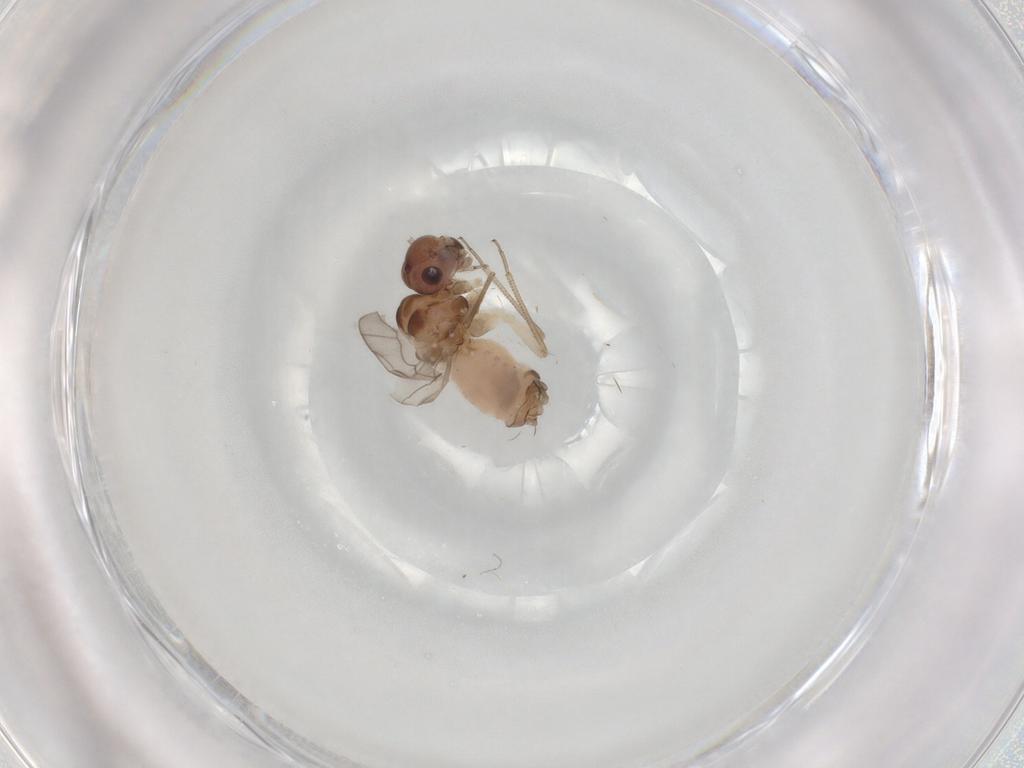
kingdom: Animalia
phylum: Arthropoda
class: Insecta
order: Psocodea
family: Peripsocidae
